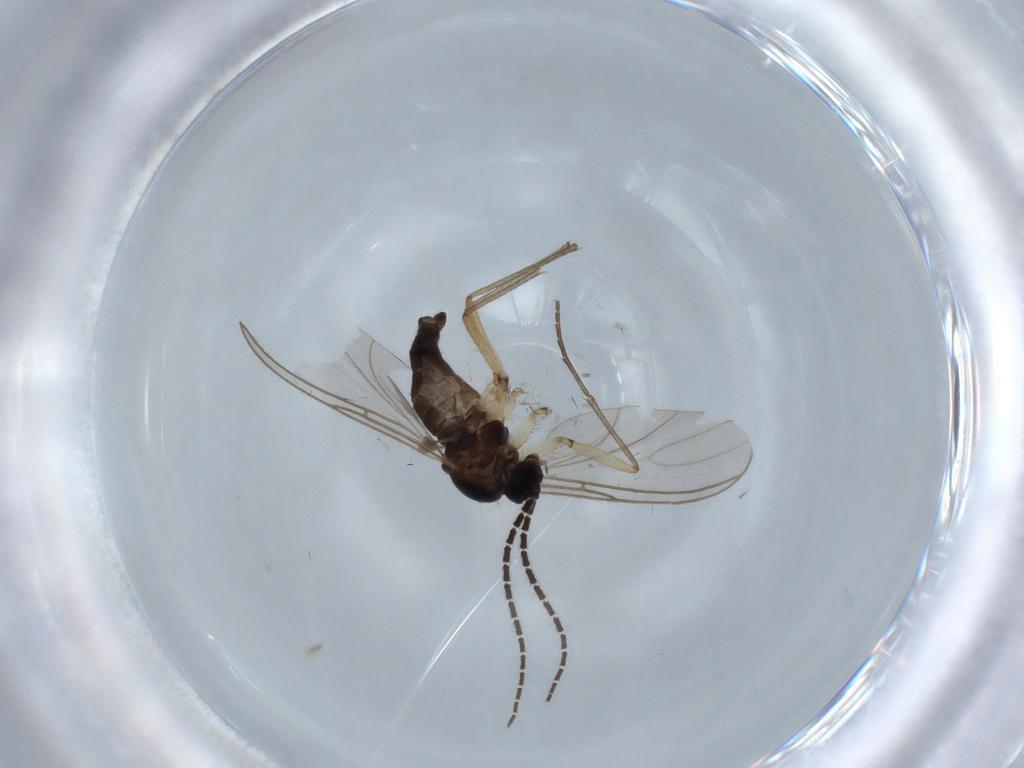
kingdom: Animalia
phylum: Arthropoda
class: Insecta
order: Diptera
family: Sciaridae
